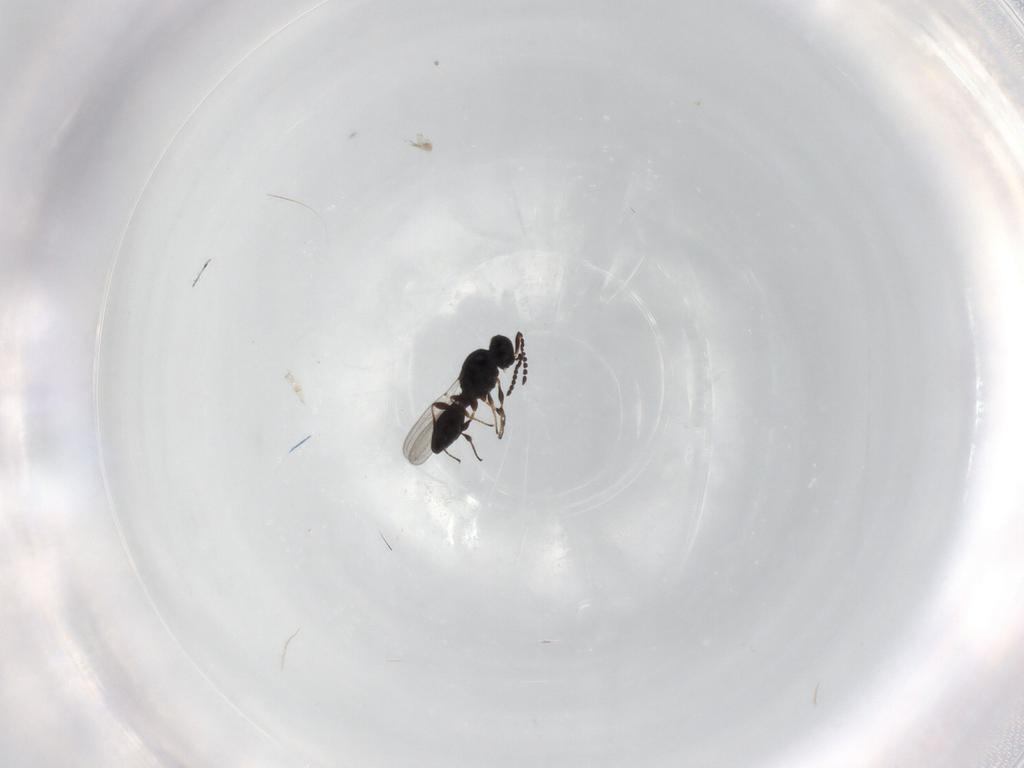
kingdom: Animalia
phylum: Arthropoda
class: Insecta
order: Hymenoptera
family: Platygastridae
